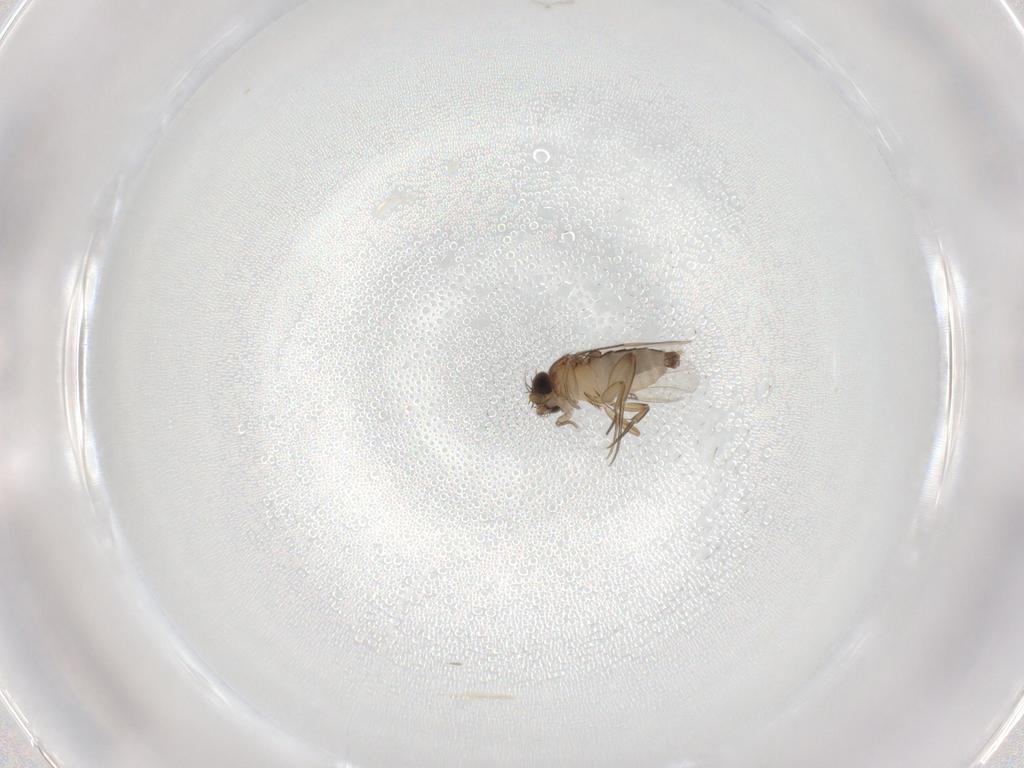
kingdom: Animalia
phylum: Arthropoda
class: Insecta
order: Diptera
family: Phoridae
